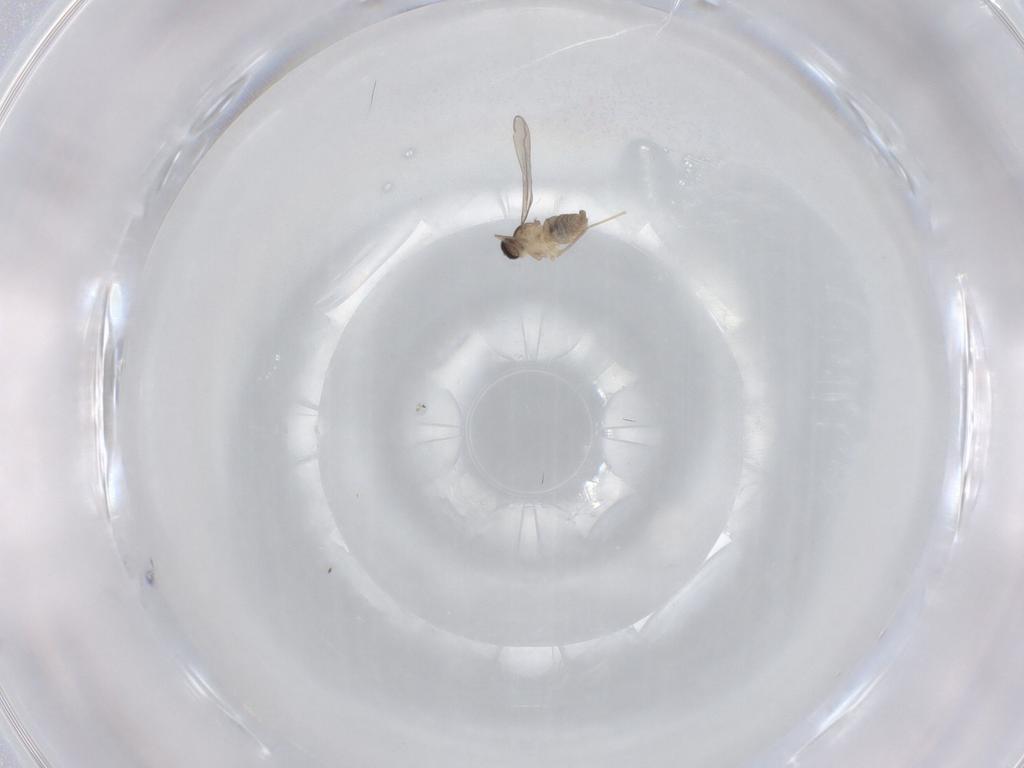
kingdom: Animalia
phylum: Arthropoda
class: Insecta
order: Diptera
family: Cecidomyiidae
